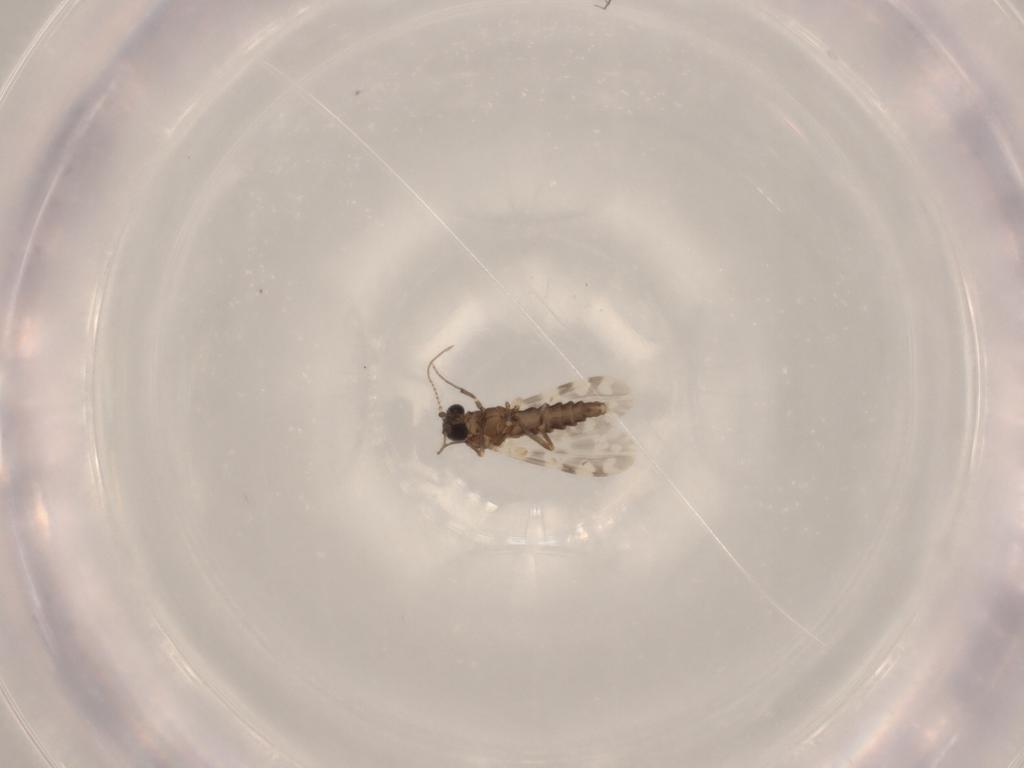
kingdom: Animalia
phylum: Arthropoda
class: Insecta
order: Diptera
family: Ceratopogonidae
